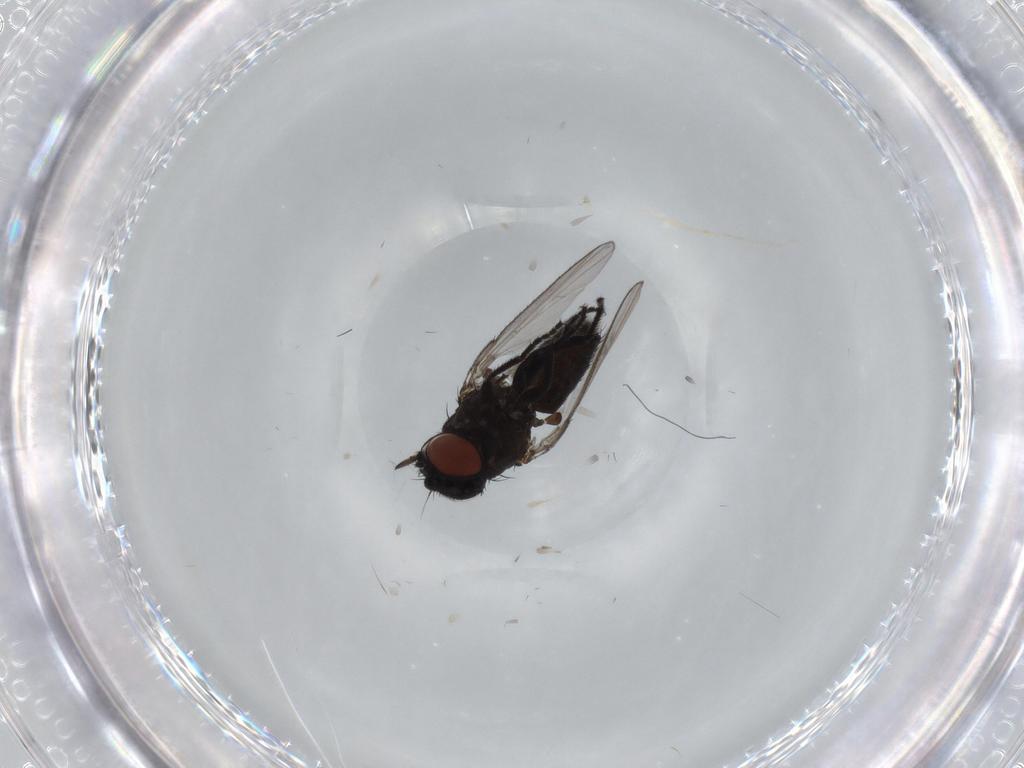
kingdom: Animalia
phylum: Arthropoda
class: Insecta
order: Diptera
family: Milichiidae
